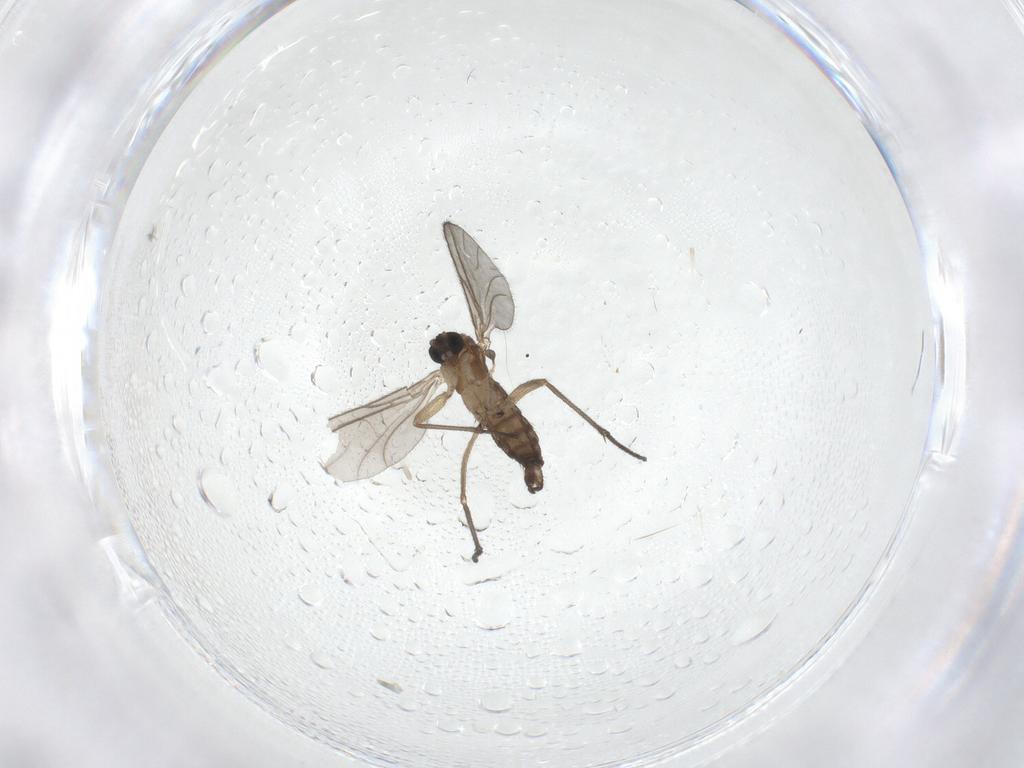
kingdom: Animalia
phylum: Arthropoda
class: Insecta
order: Diptera
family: Sciaridae
